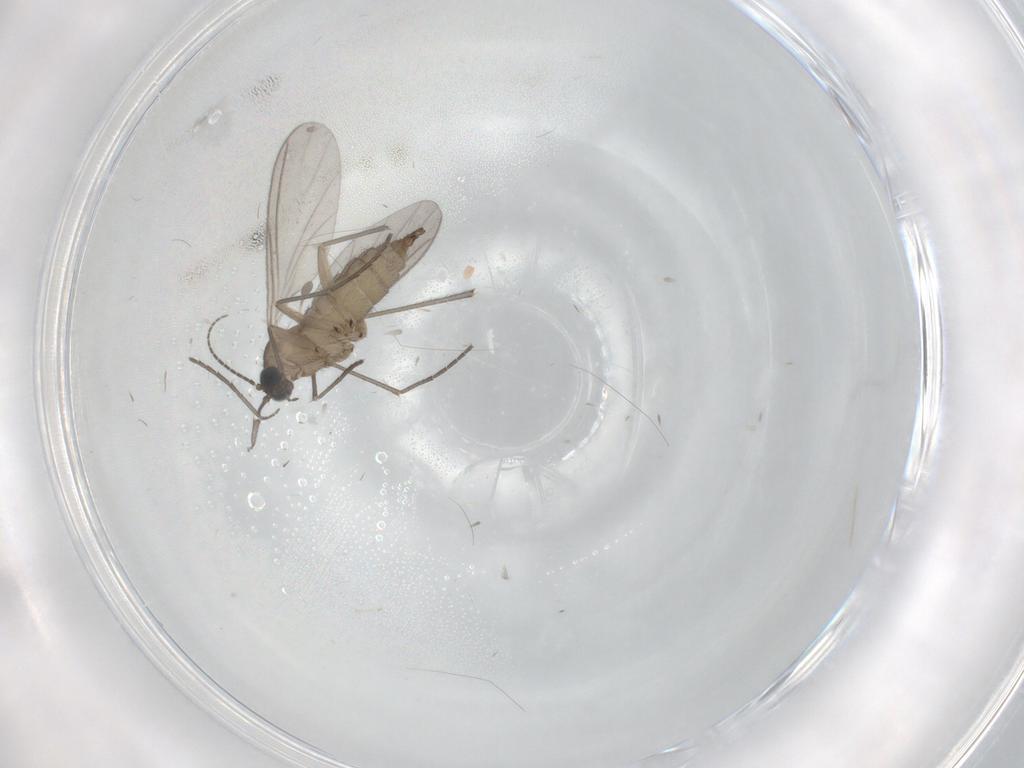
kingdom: Animalia
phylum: Arthropoda
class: Insecta
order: Diptera
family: Sciaridae
